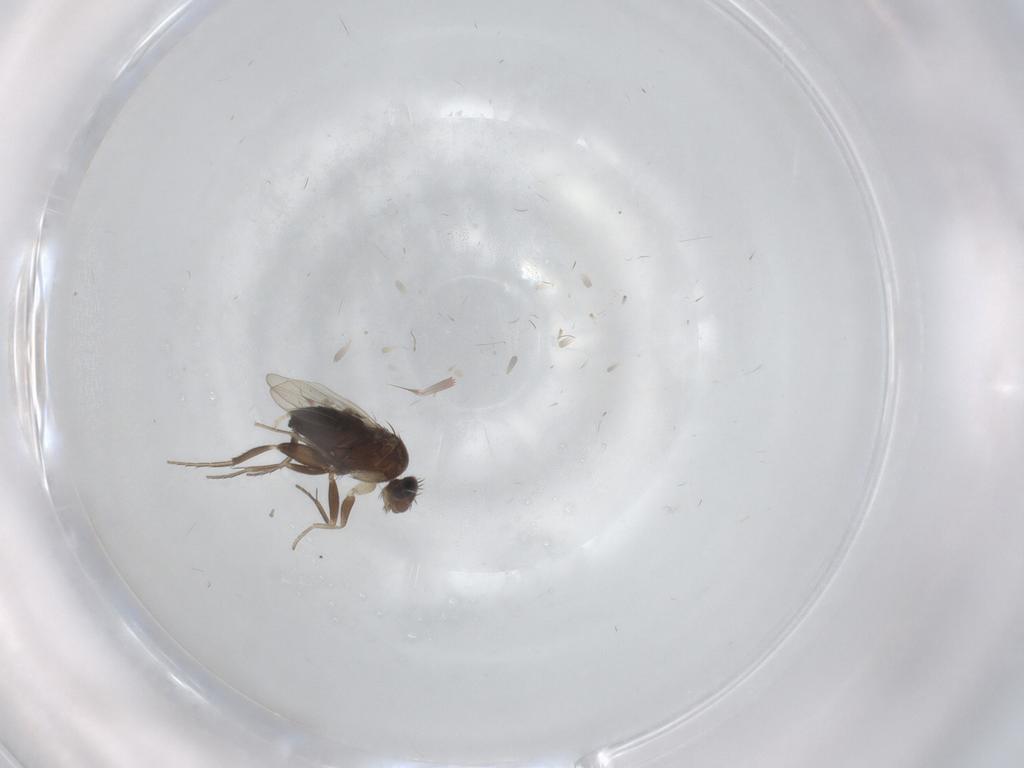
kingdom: Animalia
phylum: Arthropoda
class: Insecta
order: Diptera
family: Phoridae
